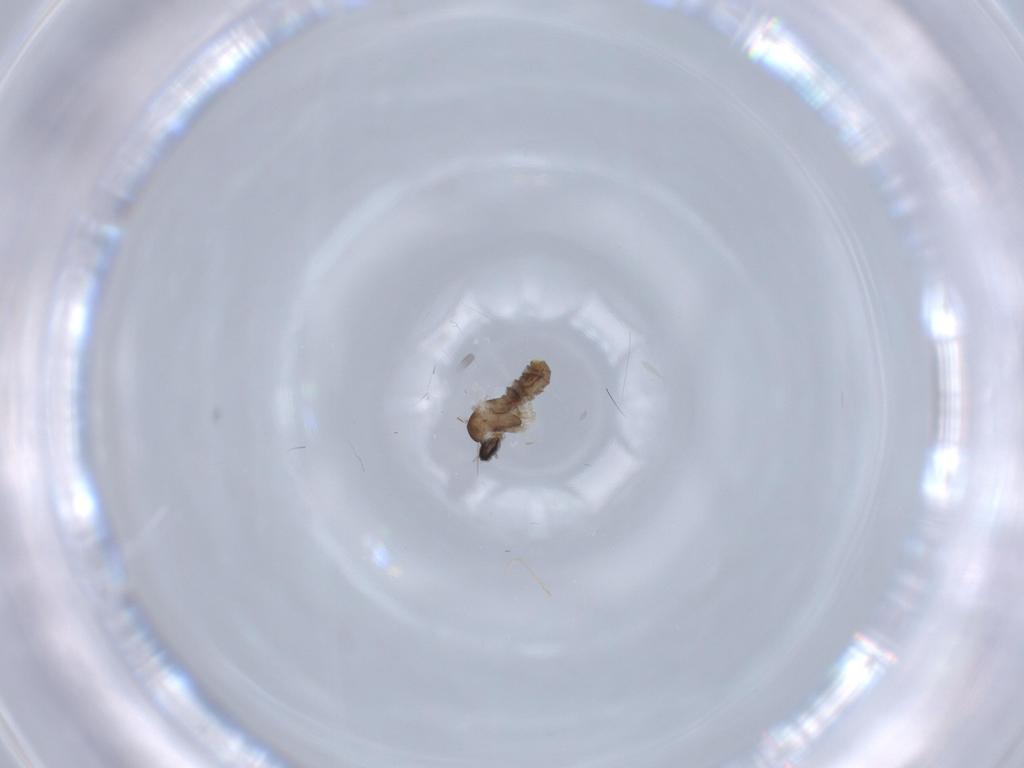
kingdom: Animalia
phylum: Arthropoda
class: Insecta
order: Diptera
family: Cecidomyiidae
